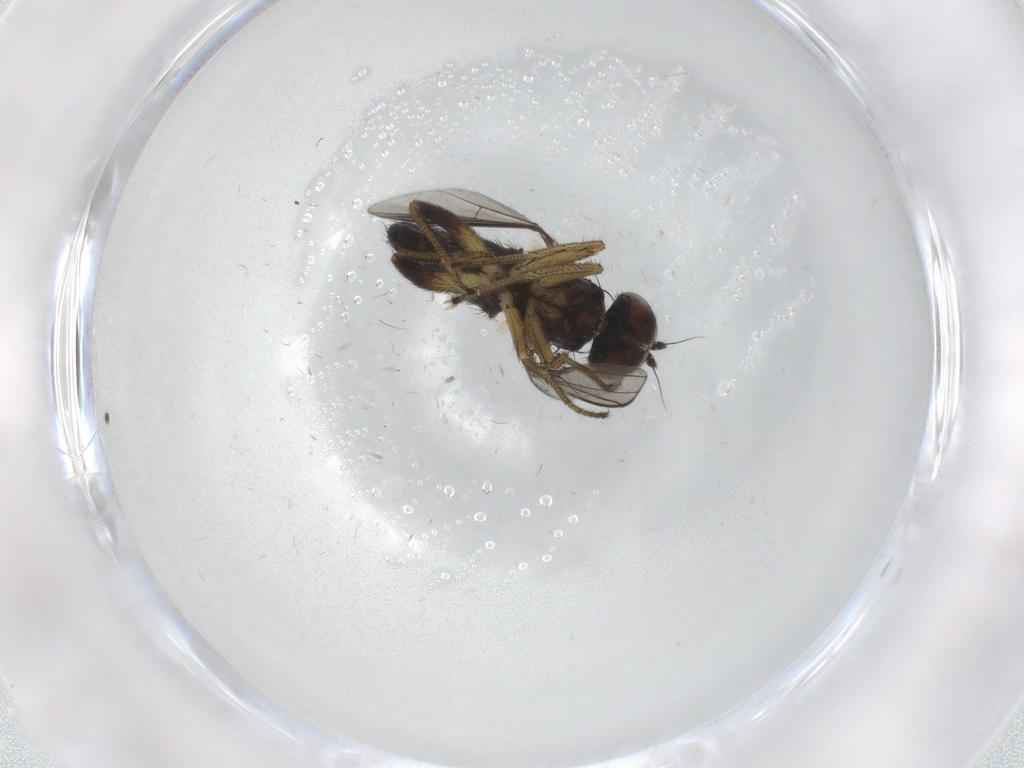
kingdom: Animalia
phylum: Arthropoda
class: Insecta
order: Diptera
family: Dolichopodidae
